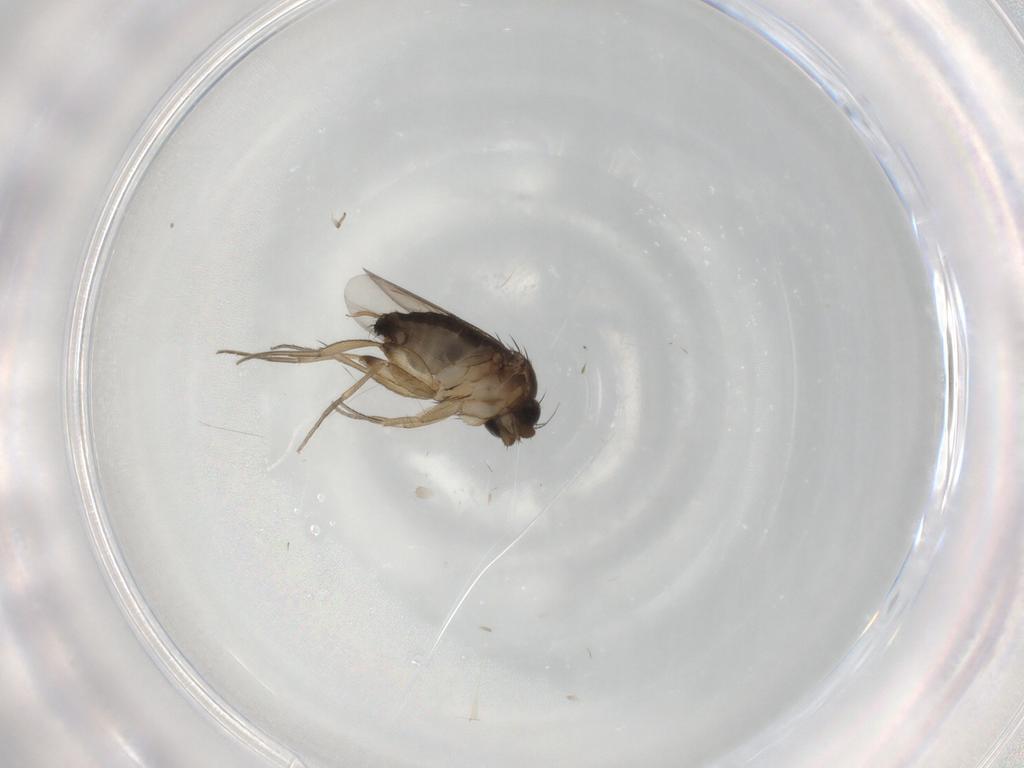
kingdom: Animalia
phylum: Arthropoda
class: Insecta
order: Diptera
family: Phoridae
